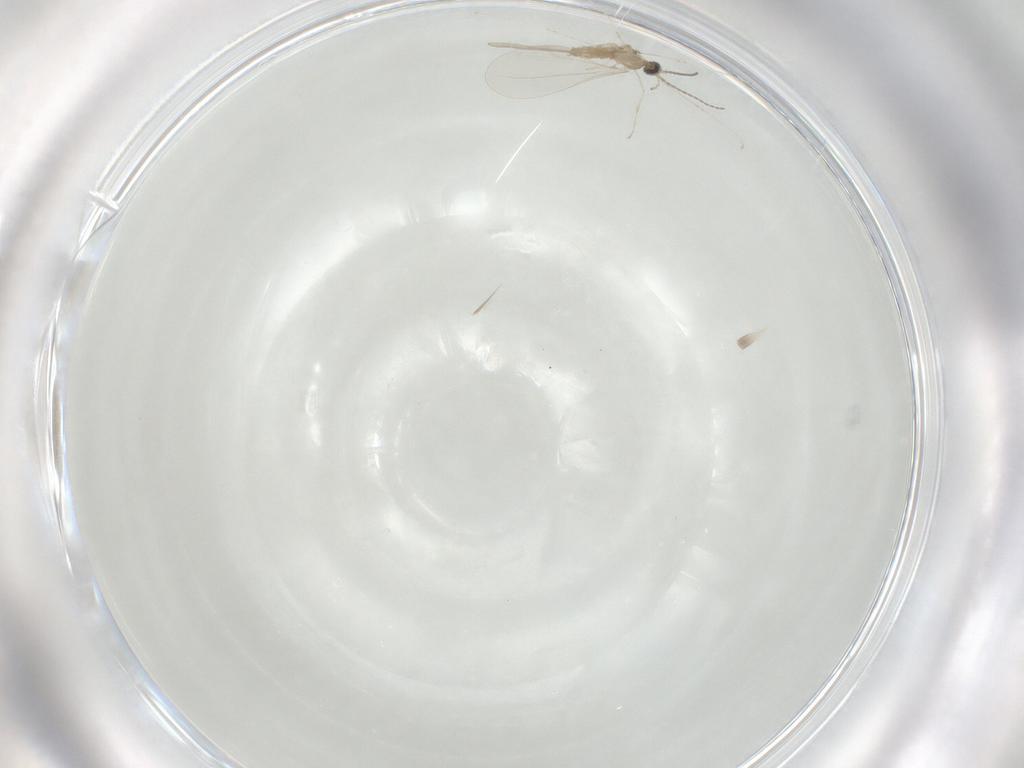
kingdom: Animalia
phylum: Arthropoda
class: Insecta
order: Diptera
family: Cecidomyiidae
